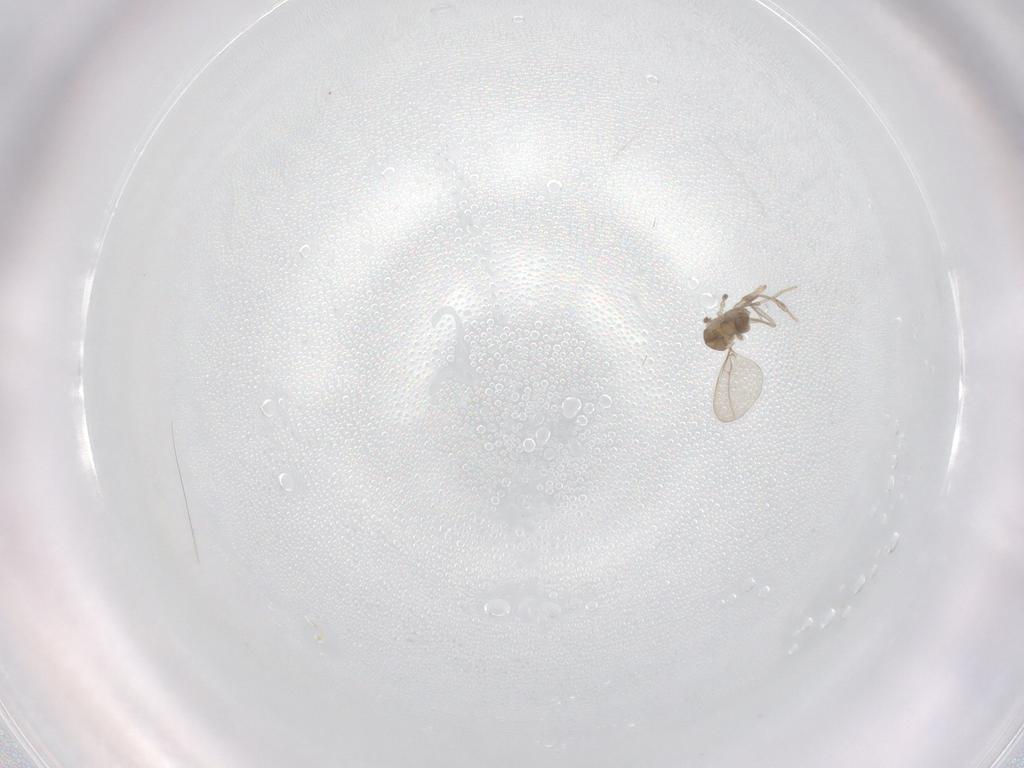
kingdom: Animalia
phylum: Arthropoda
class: Insecta
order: Diptera
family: Cecidomyiidae
